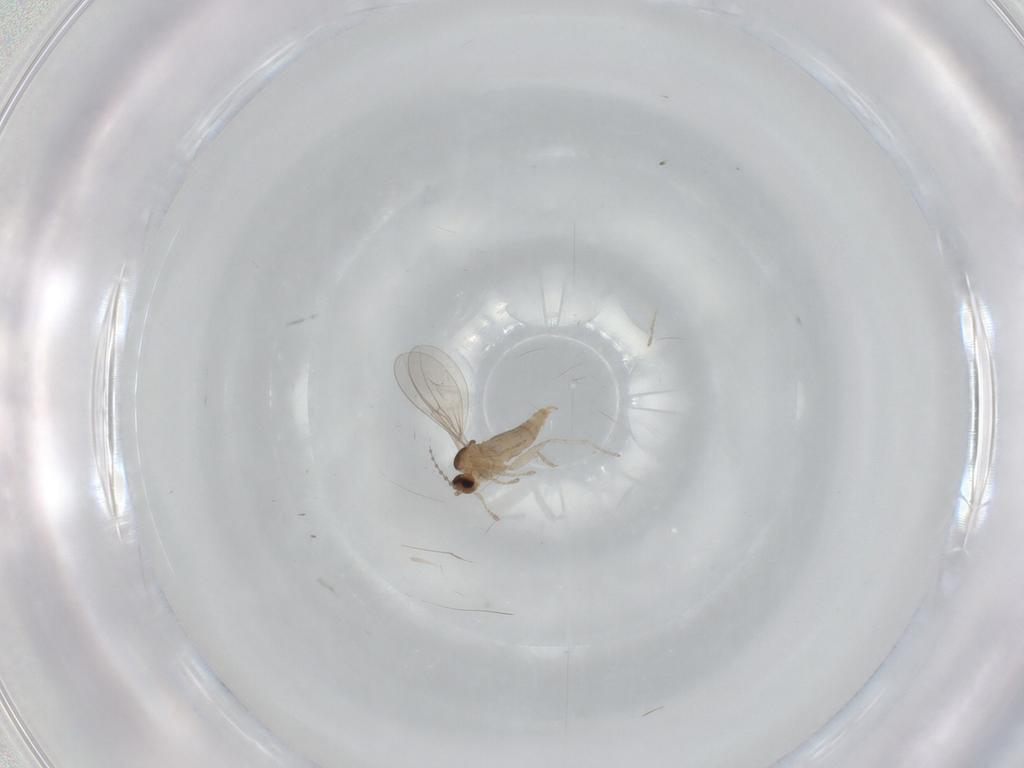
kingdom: Animalia
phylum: Arthropoda
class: Insecta
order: Diptera
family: Cecidomyiidae
